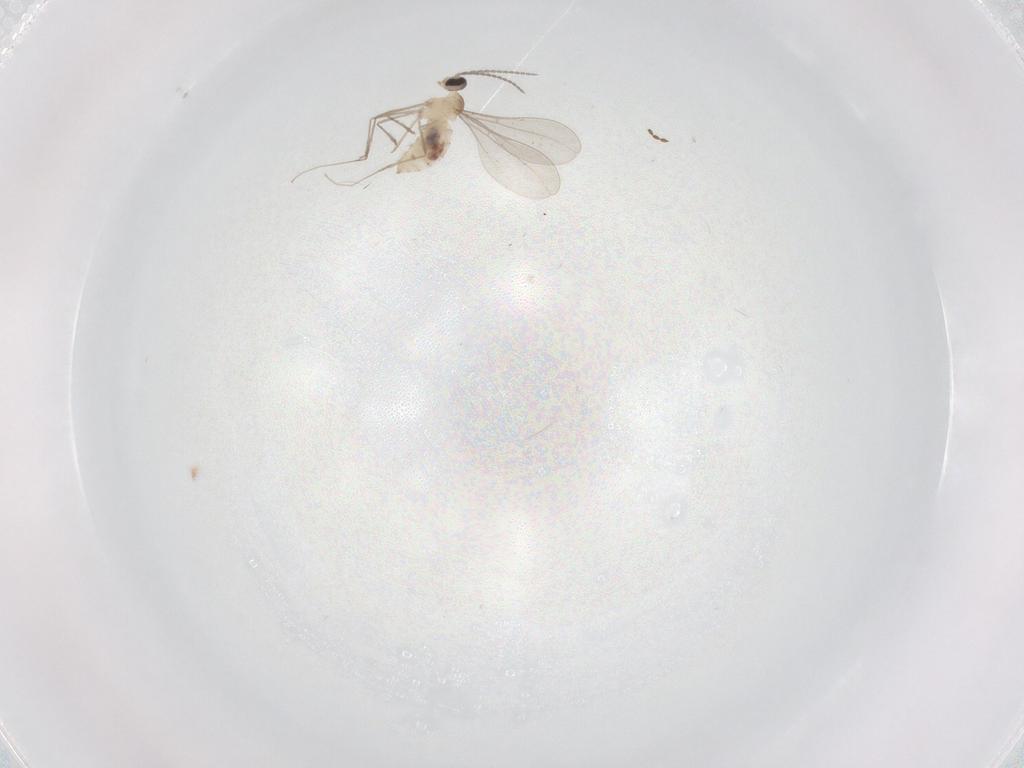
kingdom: Animalia
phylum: Arthropoda
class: Insecta
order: Diptera
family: Cecidomyiidae
